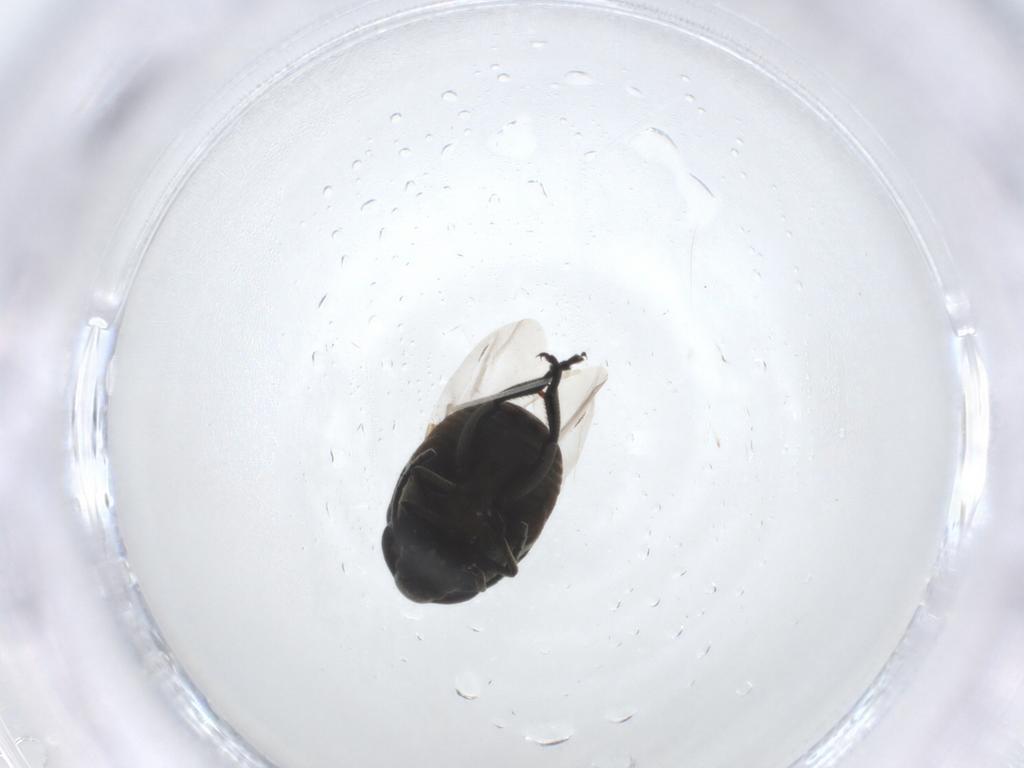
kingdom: Animalia
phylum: Arthropoda
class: Insecta
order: Coleoptera
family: Chrysomelidae
